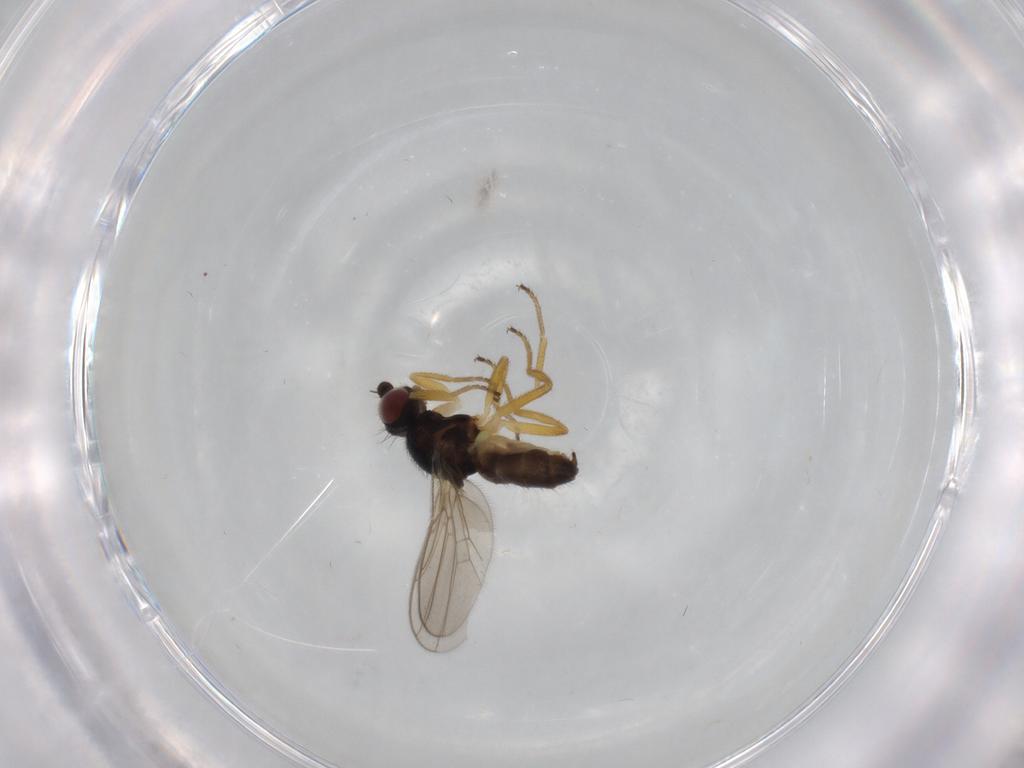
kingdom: Animalia
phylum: Arthropoda
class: Insecta
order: Diptera
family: Chloropidae
